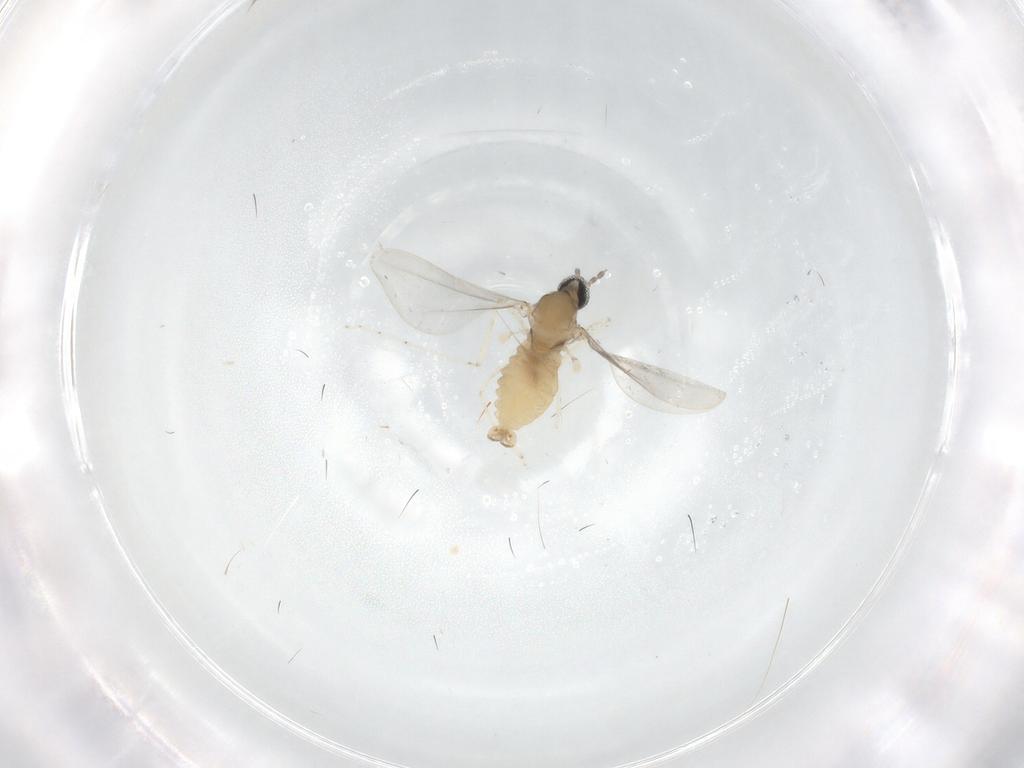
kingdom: Animalia
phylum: Arthropoda
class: Insecta
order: Diptera
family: Cecidomyiidae
